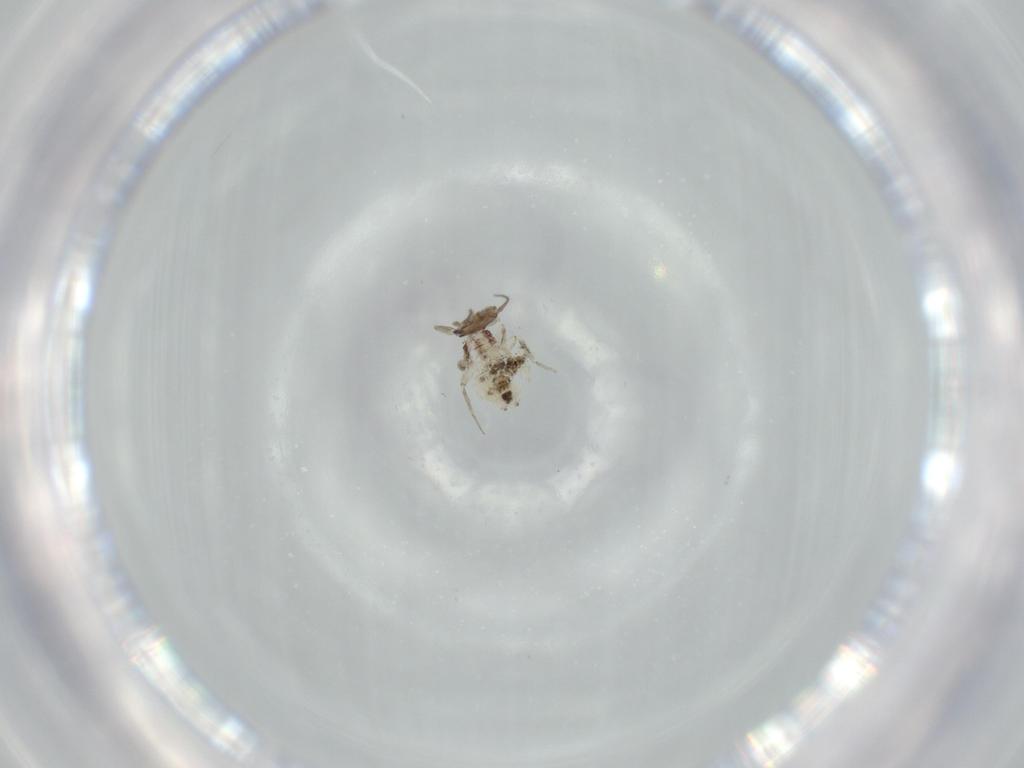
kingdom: Animalia
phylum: Arthropoda
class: Insecta
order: Psocodea
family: Lepidopsocidae
